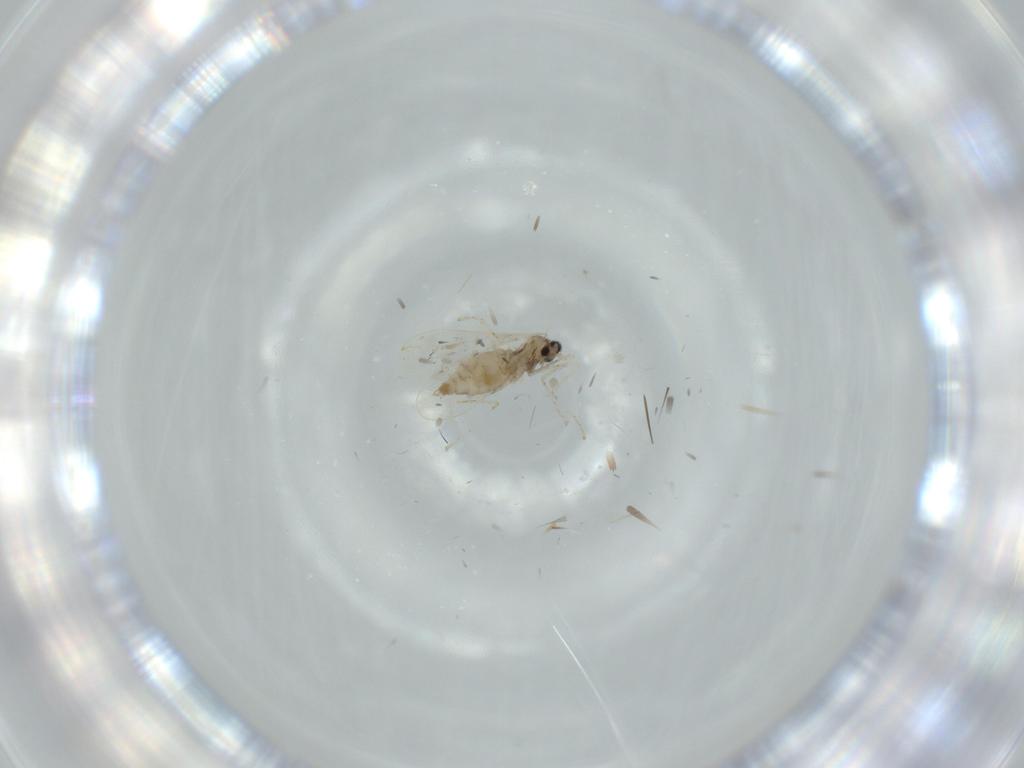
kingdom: Animalia
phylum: Arthropoda
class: Insecta
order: Diptera
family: Cecidomyiidae
